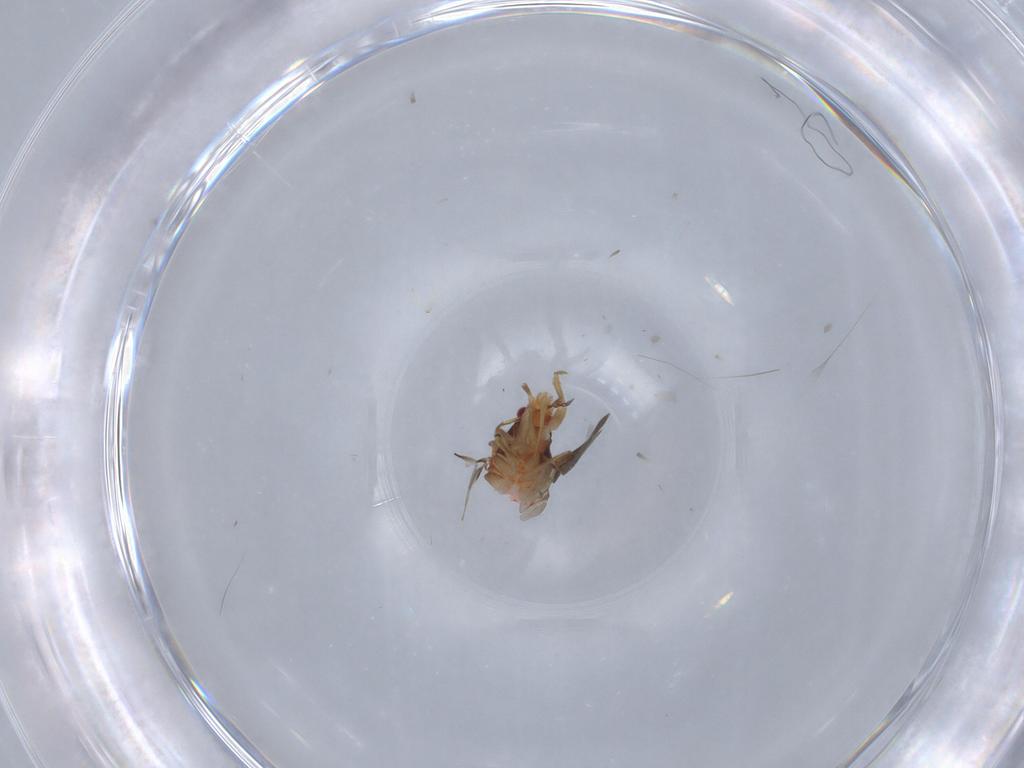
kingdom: Animalia
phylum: Arthropoda
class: Insecta
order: Hemiptera
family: Ceratocombidae
